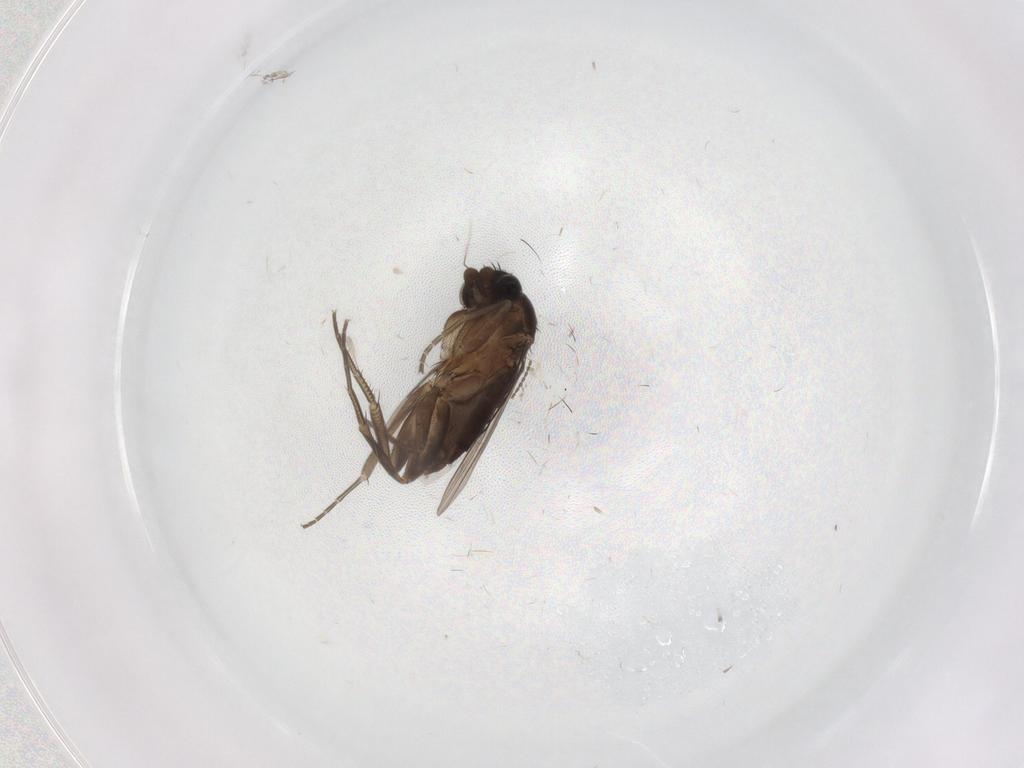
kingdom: Animalia
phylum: Arthropoda
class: Insecta
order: Diptera
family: Phoridae
